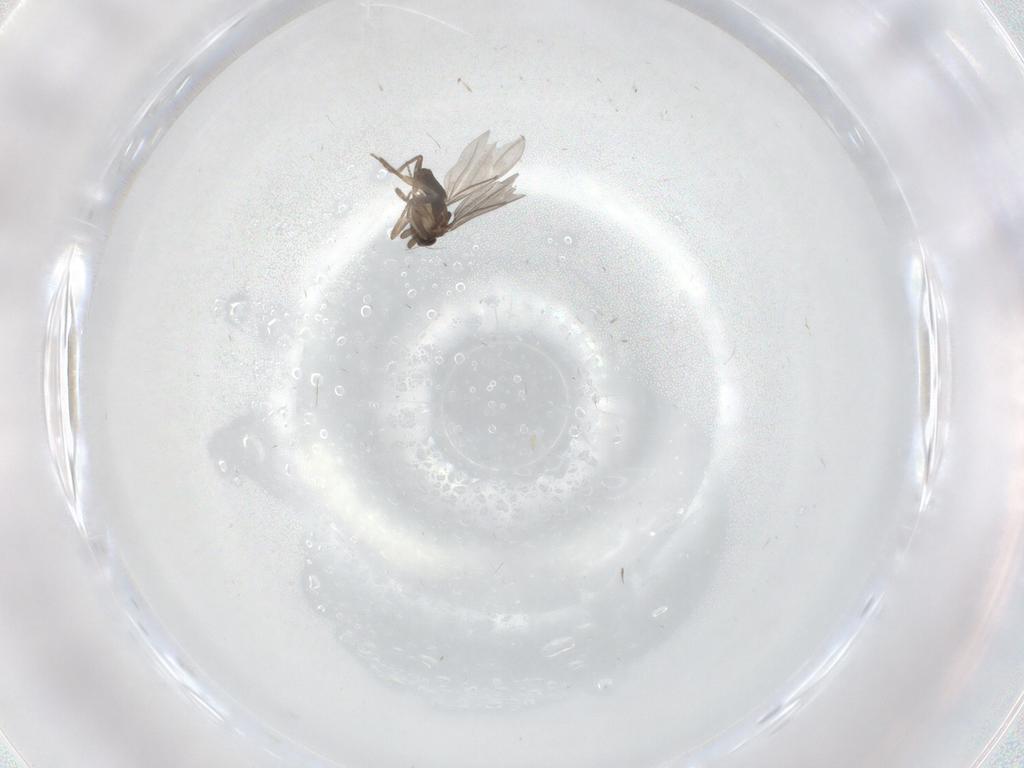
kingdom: Animalia
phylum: Arthropoda
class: Insecta
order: Diptera
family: Phoridae
